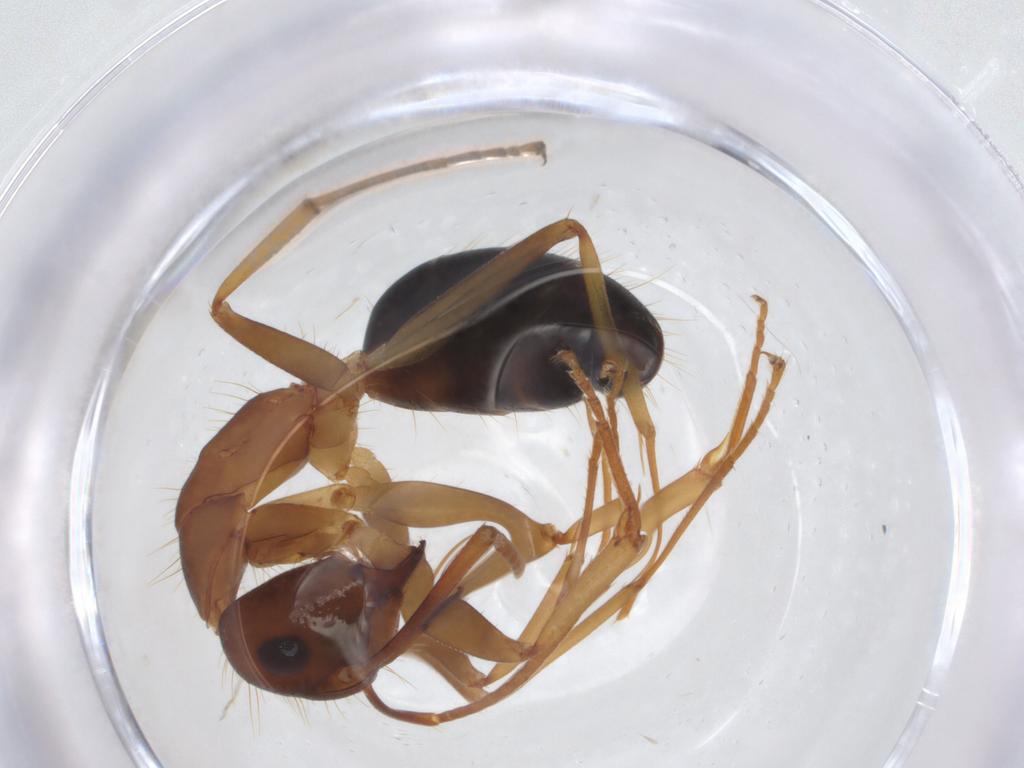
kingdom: Animalia
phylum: Arthropoda
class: Insecta
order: Hymenoptera
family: Formicidae
